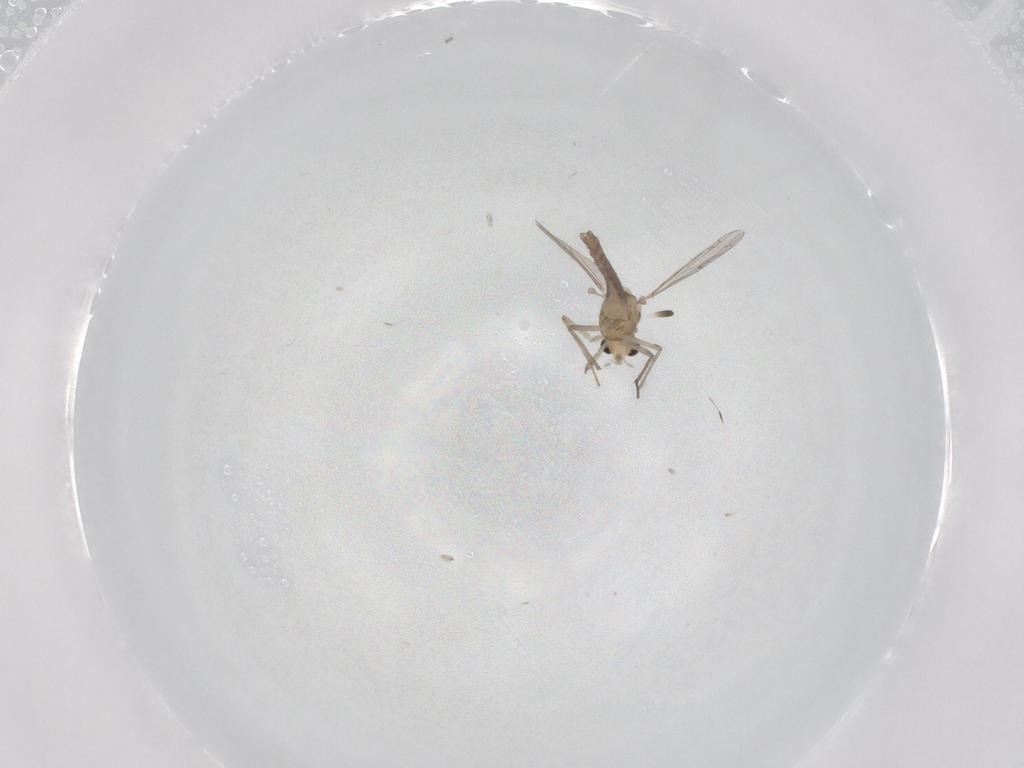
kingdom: Animalia
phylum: Arthropoda
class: Insecta
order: Diptera
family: Chironomidae
